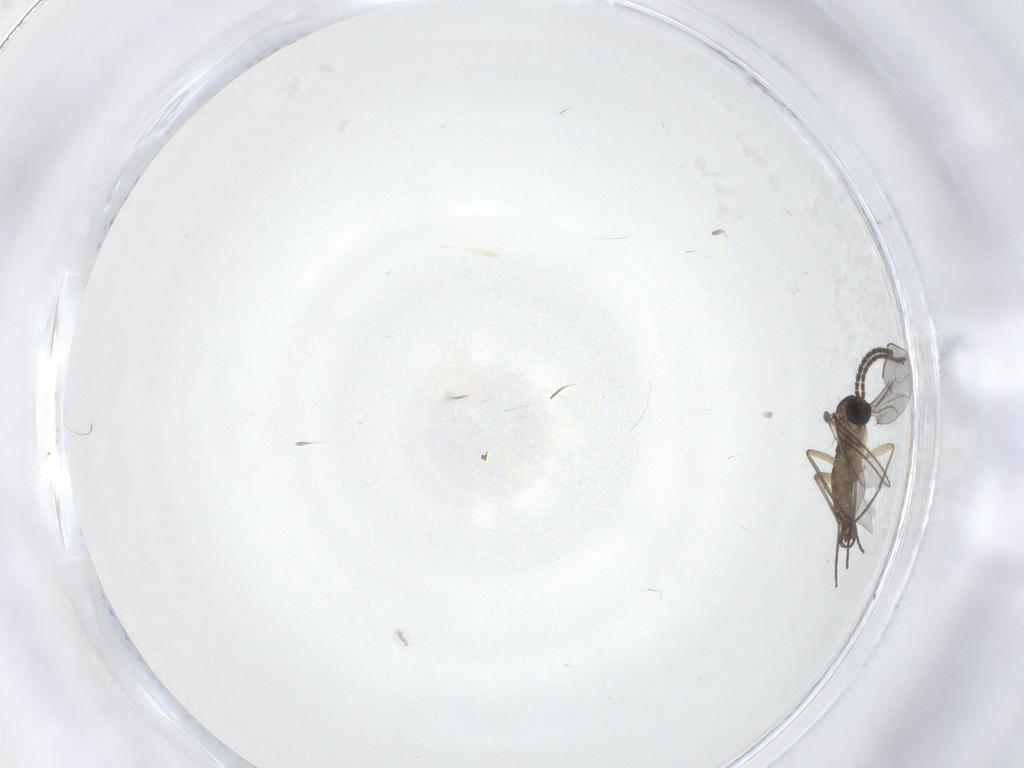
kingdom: Animalia
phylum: Arthropoda
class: Insecta
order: Diptera
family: Sciaridae
